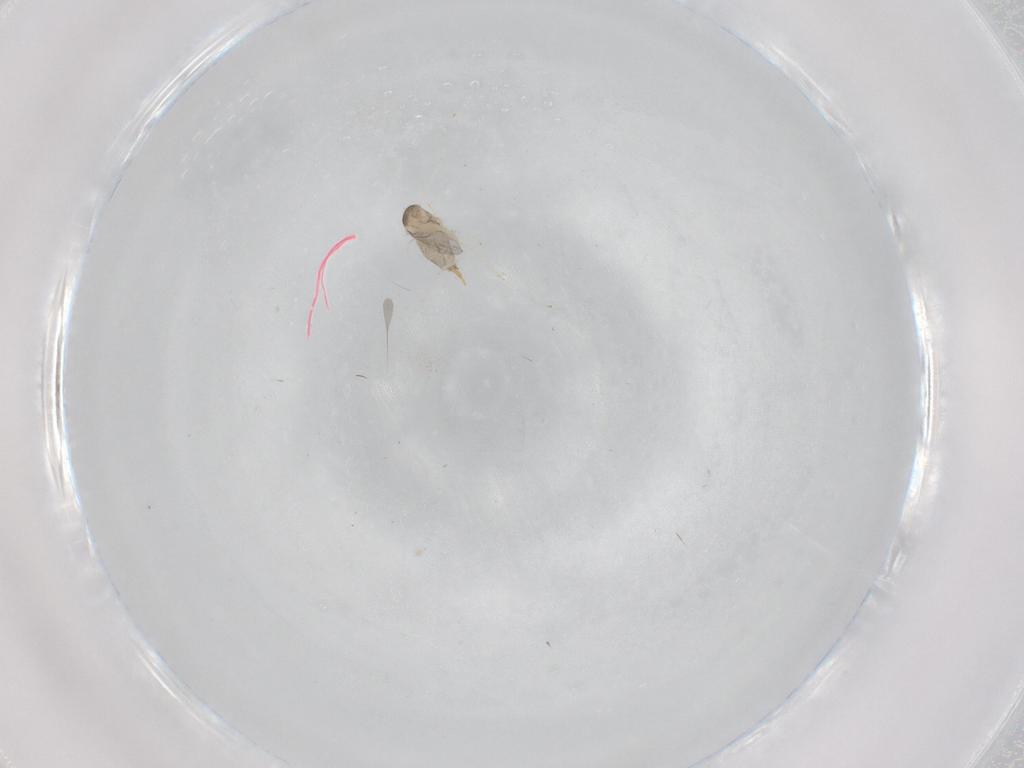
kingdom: Animalia
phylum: Arthropoda
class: Insecta
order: Diptera
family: Cecidomyiidae
